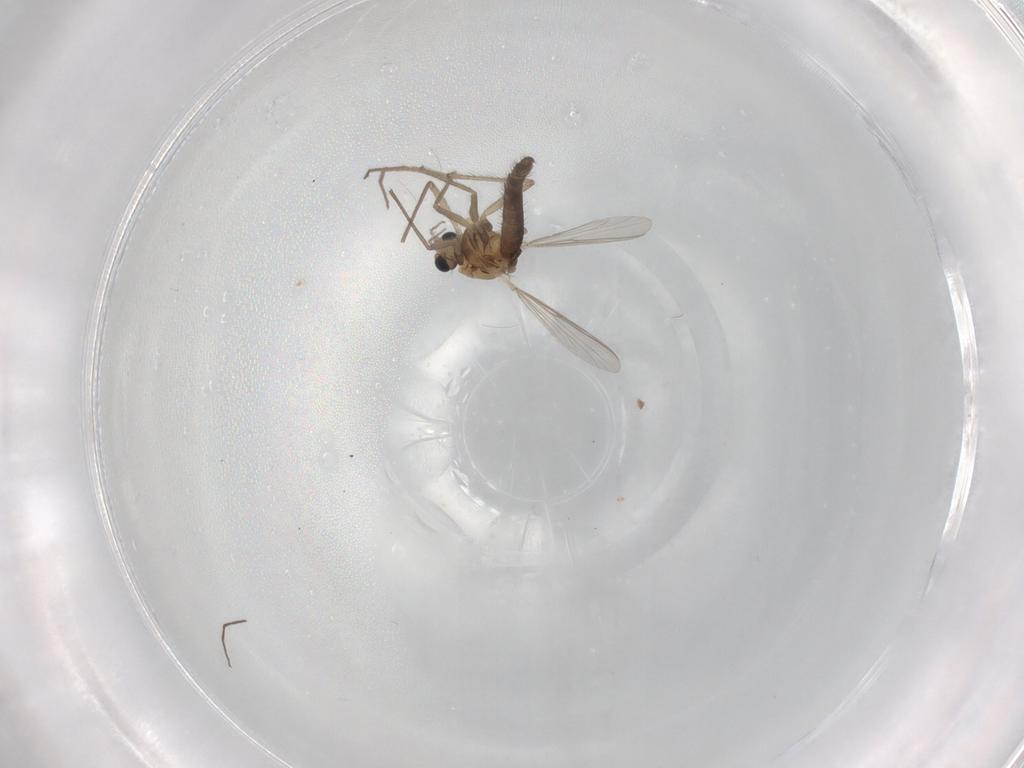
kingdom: Animalia
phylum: Arthropoda
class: Insecta
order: Diptera
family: Chironomidae
